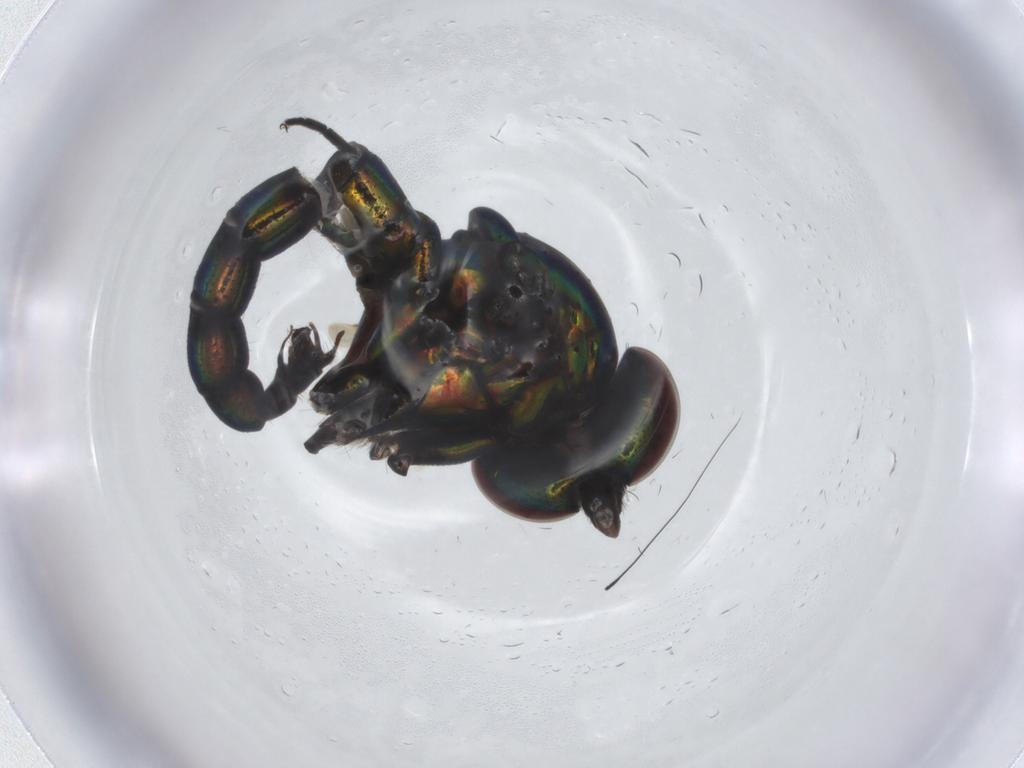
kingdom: Animalia
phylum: Arthropoda
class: Insecta
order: Diptera
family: Dolichopodidae
